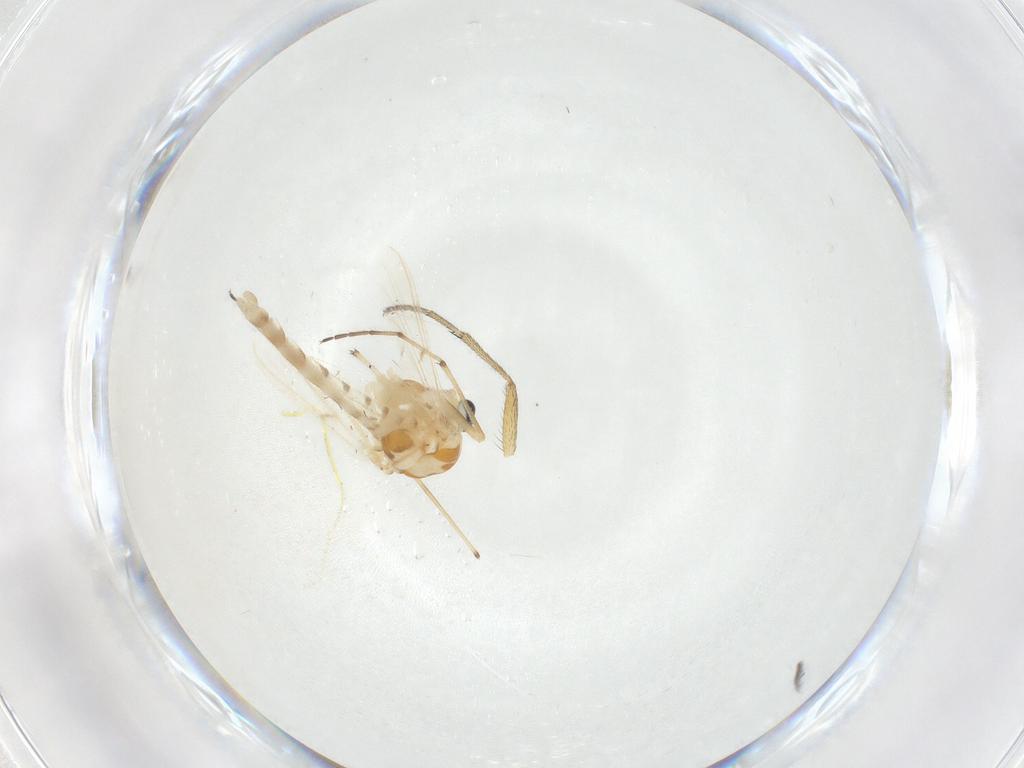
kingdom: Animalia
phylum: Arthropoda
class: Insecta
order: Diptera
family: Chironomidae
